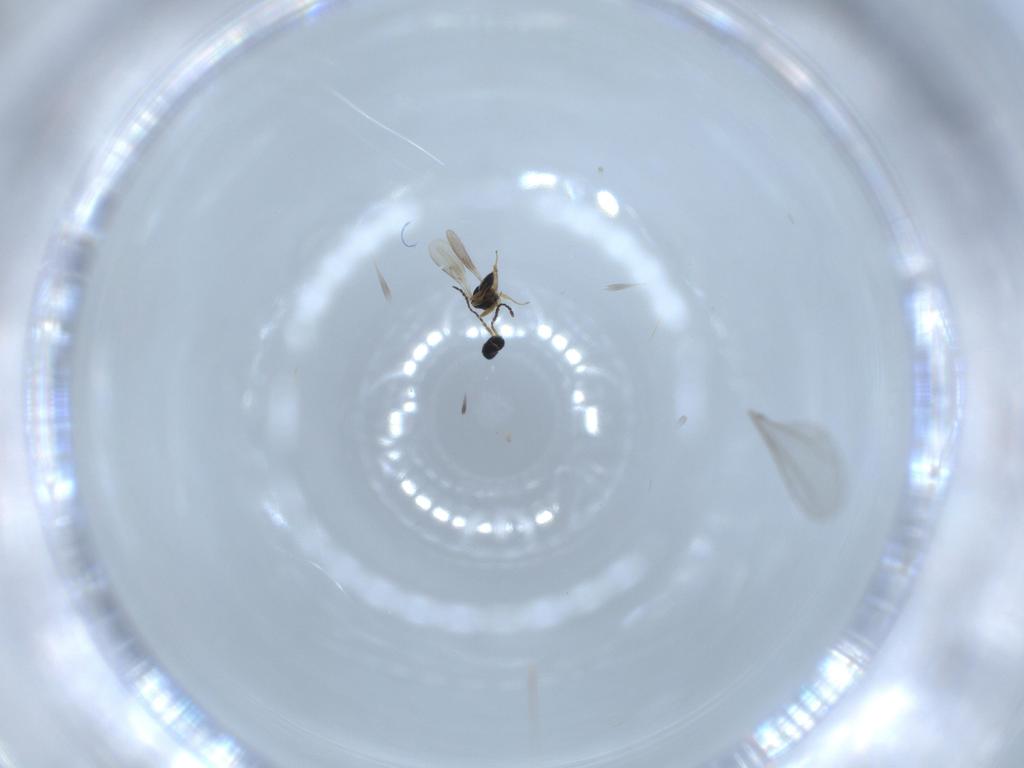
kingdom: Animalia
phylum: Arthropoda
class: Insecta
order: Hymenoptera
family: Scelionidae
